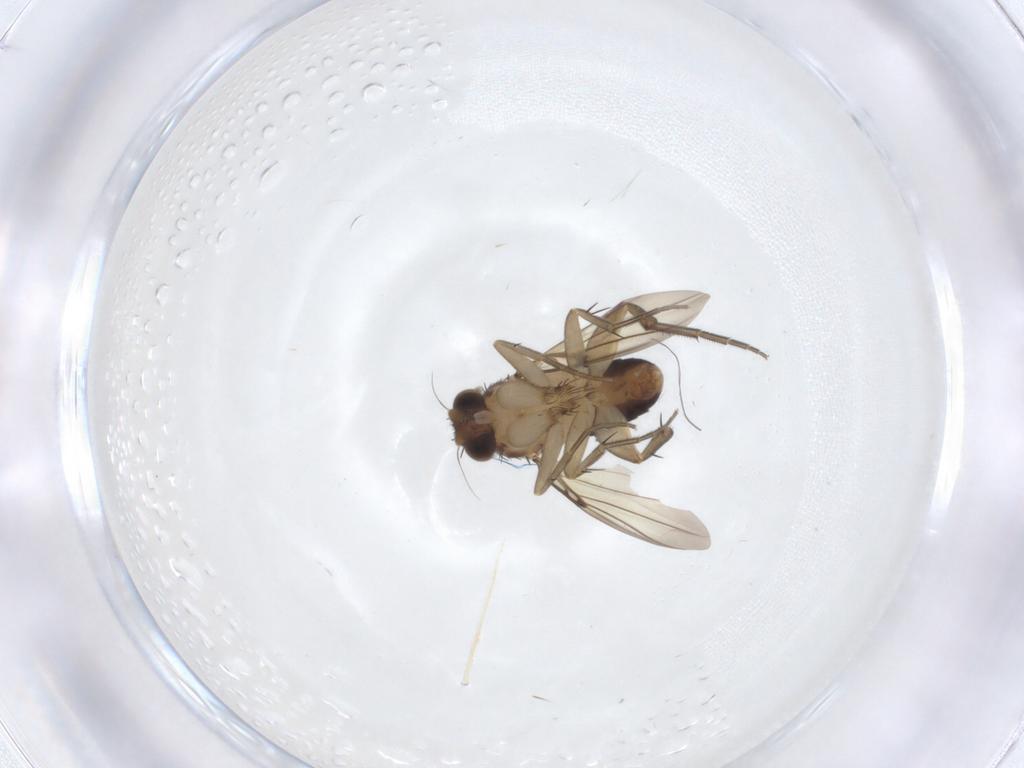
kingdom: Animalia
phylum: Arthropoda
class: Insecta
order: Diptera
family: Phoridae
